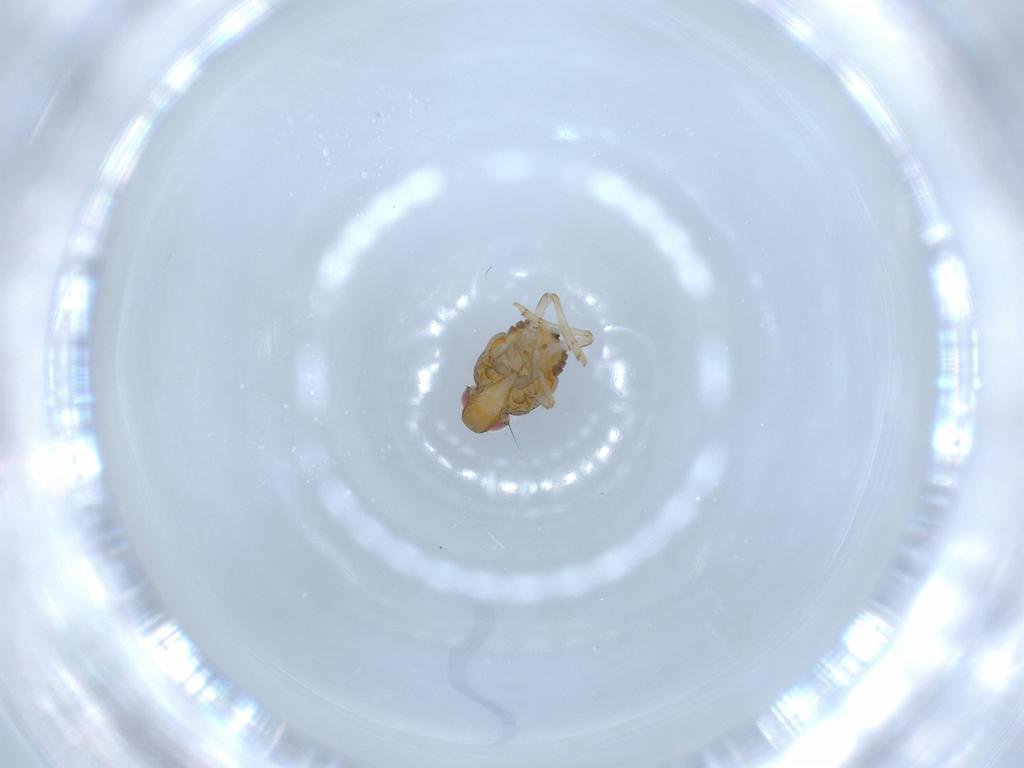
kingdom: Animalia
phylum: Arthropoda
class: Insecta
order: Hemiptera
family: Issidae
